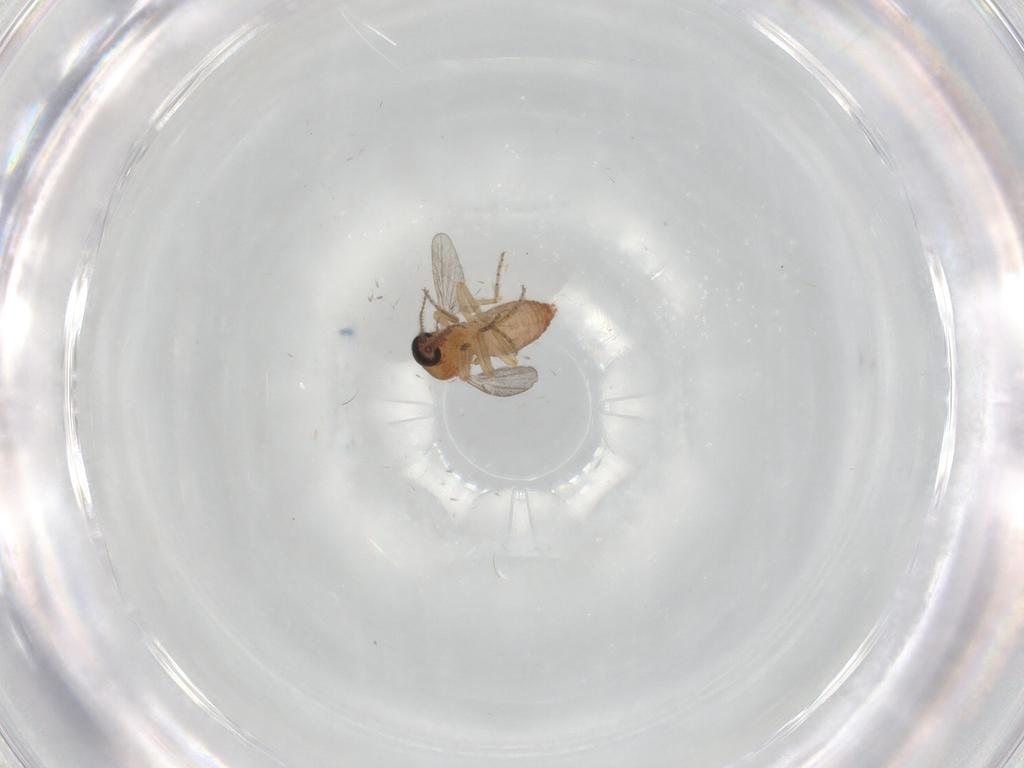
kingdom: Animalia
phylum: Arthropoda
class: Insecta
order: Diptera
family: Ceratopogonidae
